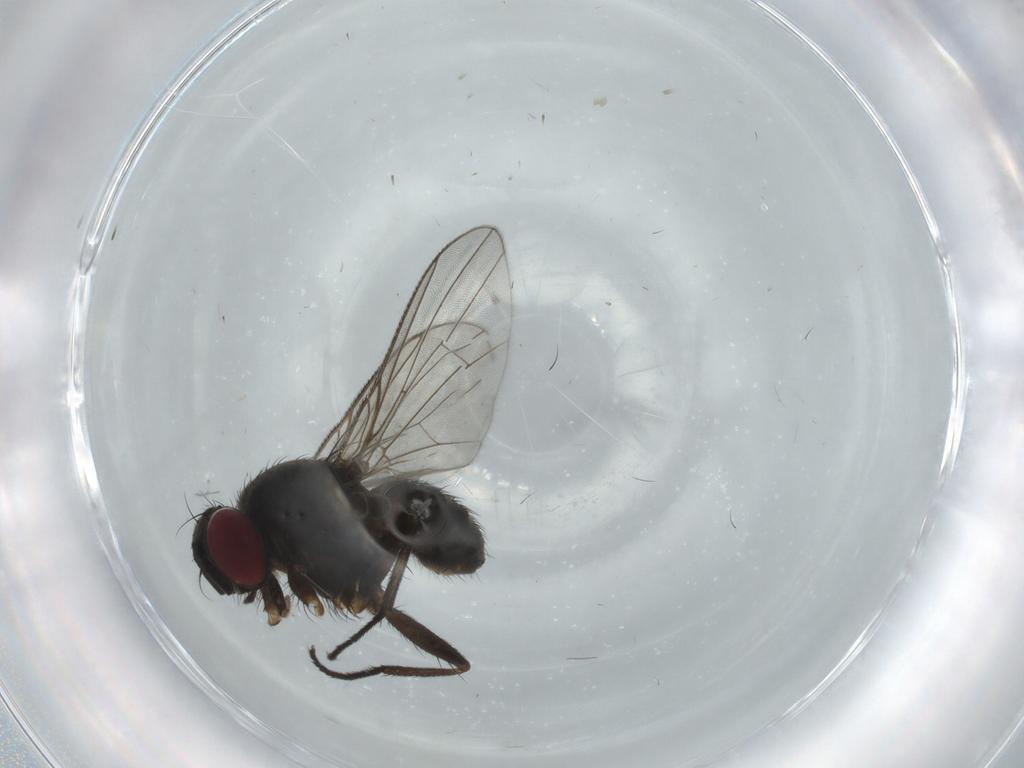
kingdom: Animalia
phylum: Arthropoda
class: Insecta
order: Diptera
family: Muscidae
